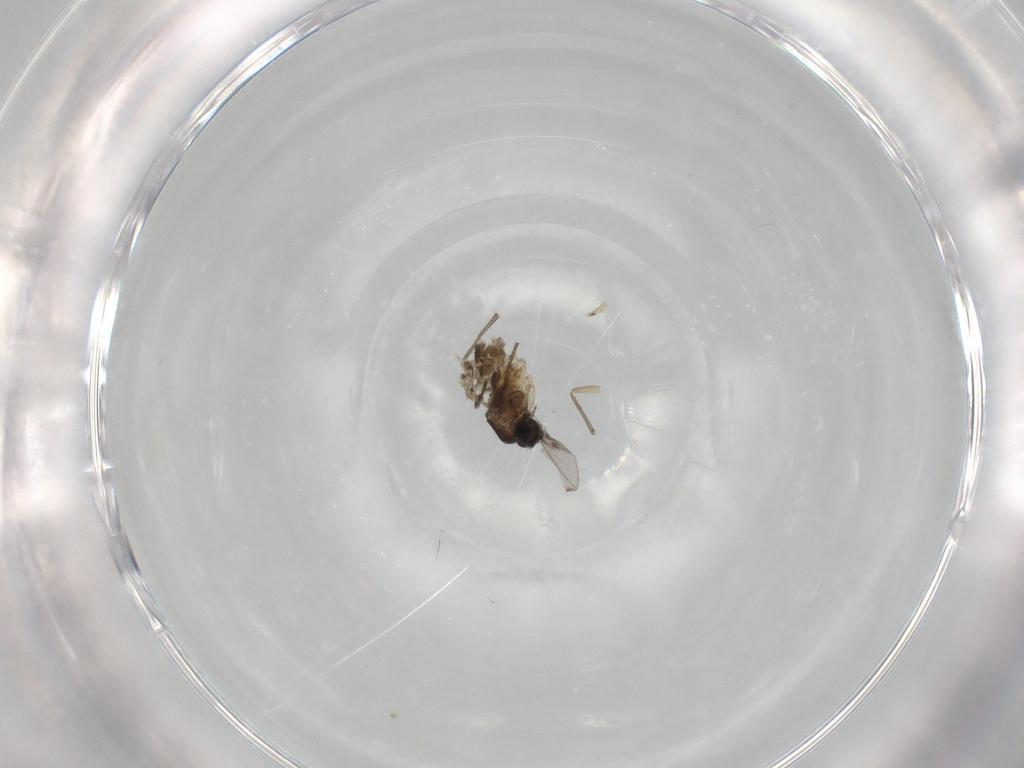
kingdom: Animalia
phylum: Arthropoda
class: Insecta
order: Diptera
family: Sciaridae
